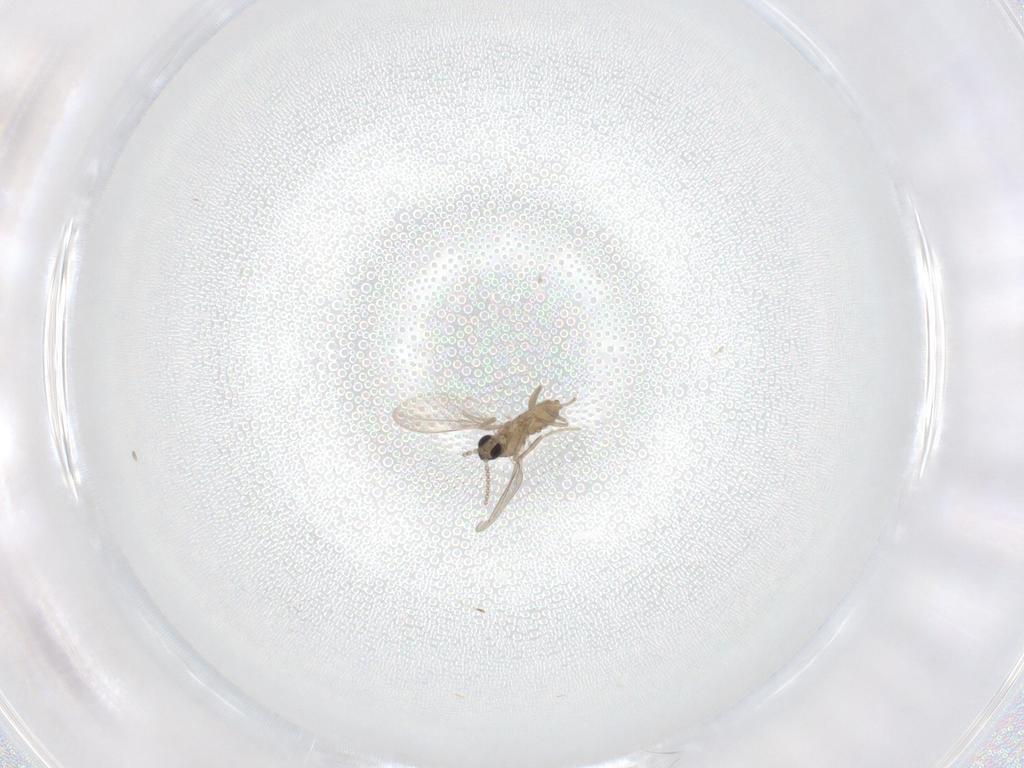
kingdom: Animalia
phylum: Arthropoda
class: Insecta
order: Diptera
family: Cecidomyiidae
